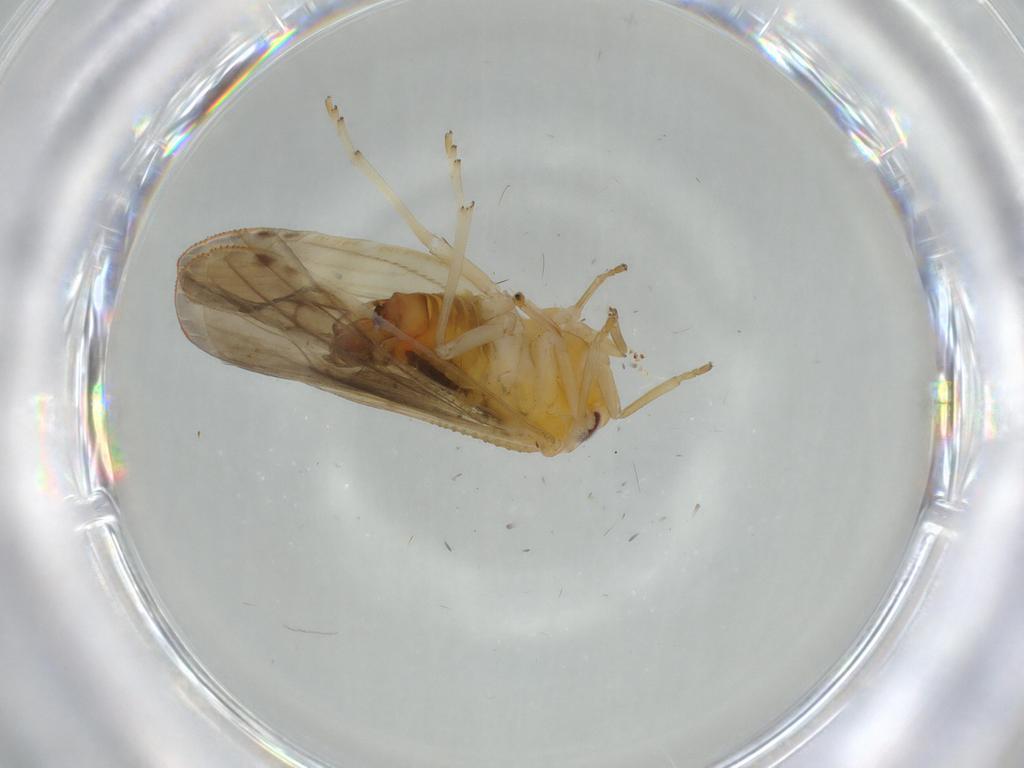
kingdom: Animalia
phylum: Arthropoda
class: Insecta
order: Hemiptera
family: Derbidae
